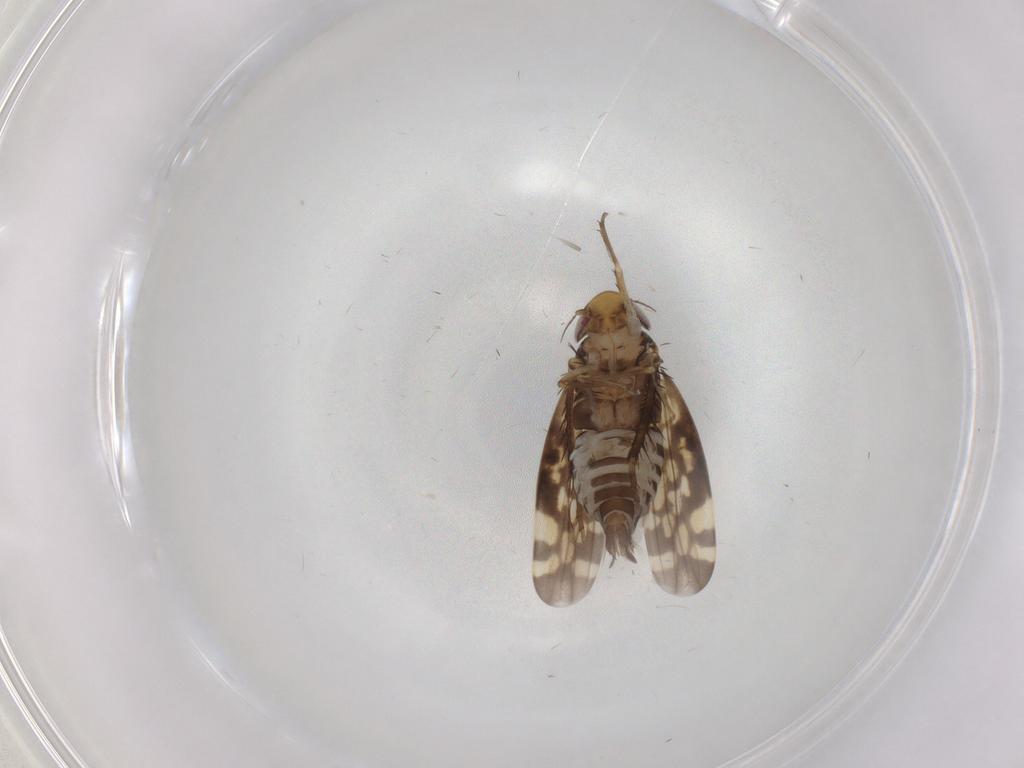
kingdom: Animalia
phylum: Arthropoda
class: Insecta
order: Hemiptera
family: Cicadellidae
